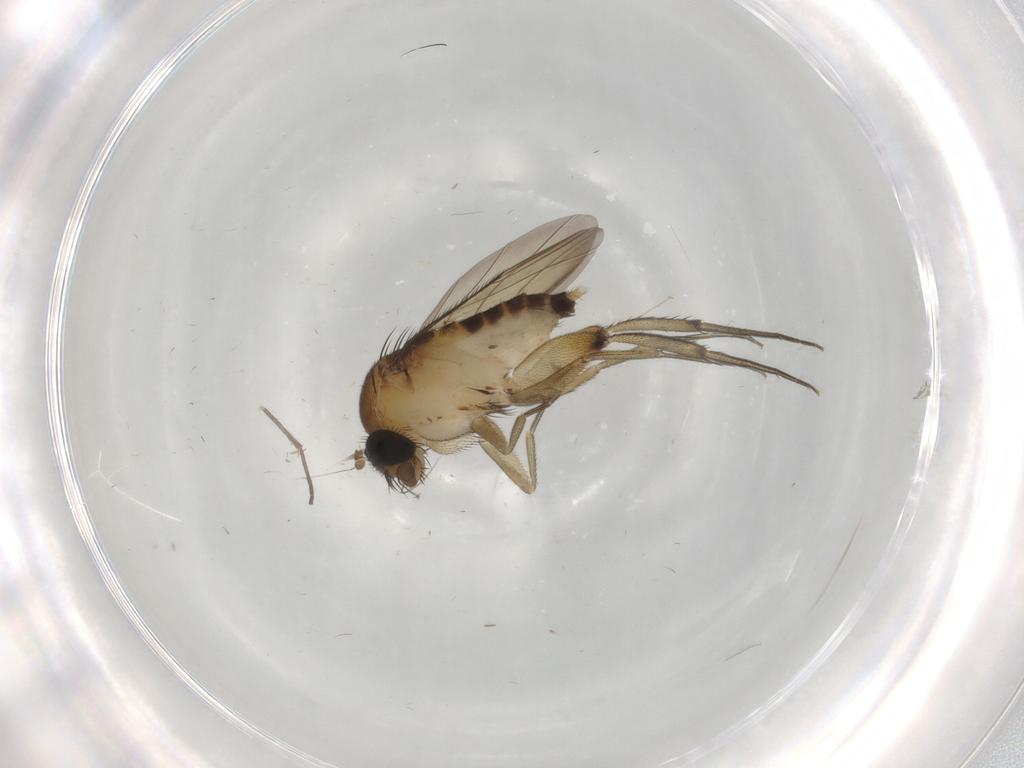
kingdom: Animalia
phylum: Arthropoda
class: Insecta
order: Diptera
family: Phoridae
